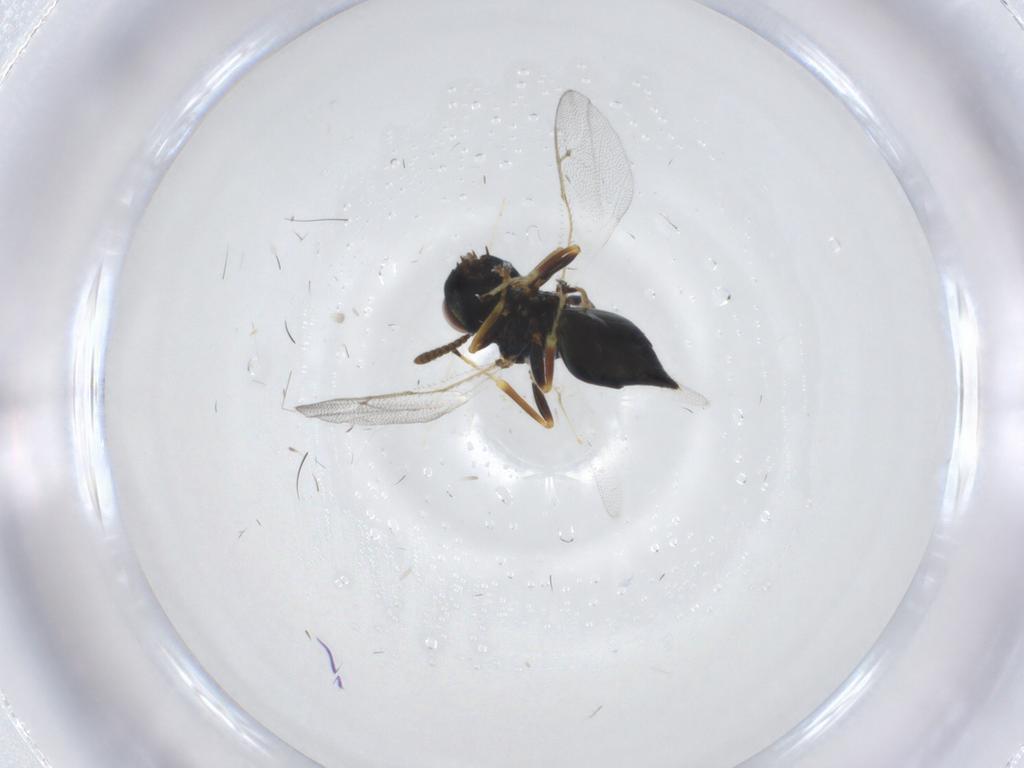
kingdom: Animalia
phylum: Arthropoda
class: Insecta
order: Hymenoptera
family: Pteromalidae
